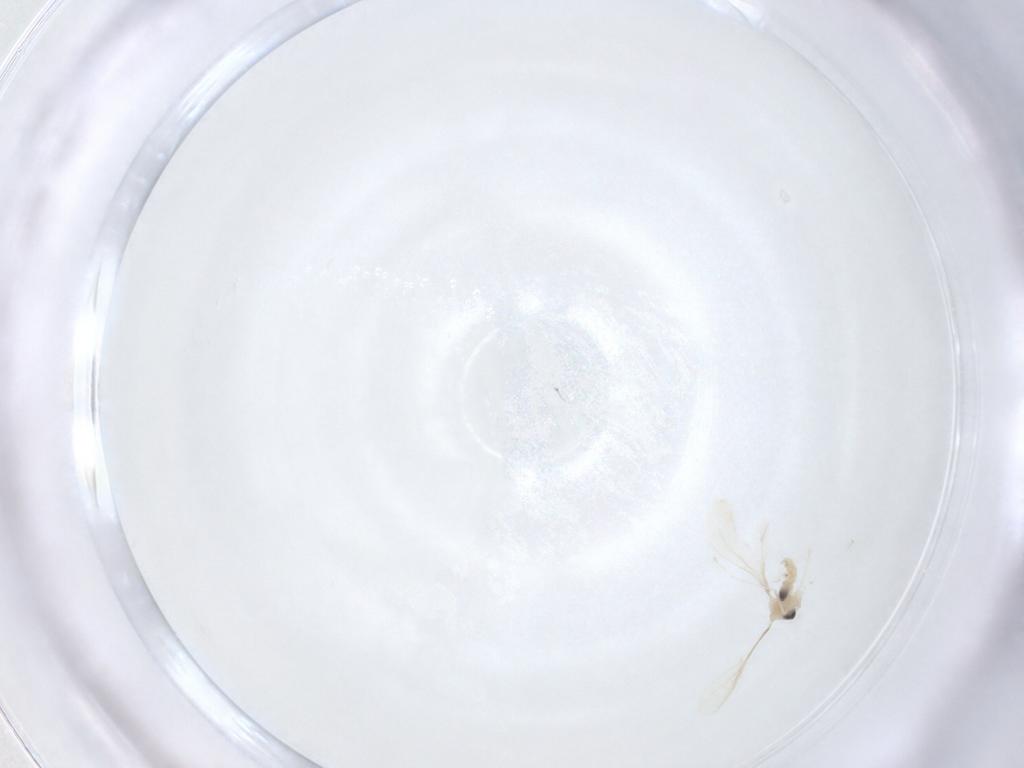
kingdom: Animalia
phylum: Arthropoda
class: Insecta
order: Diptera
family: Cecidomyiidae
